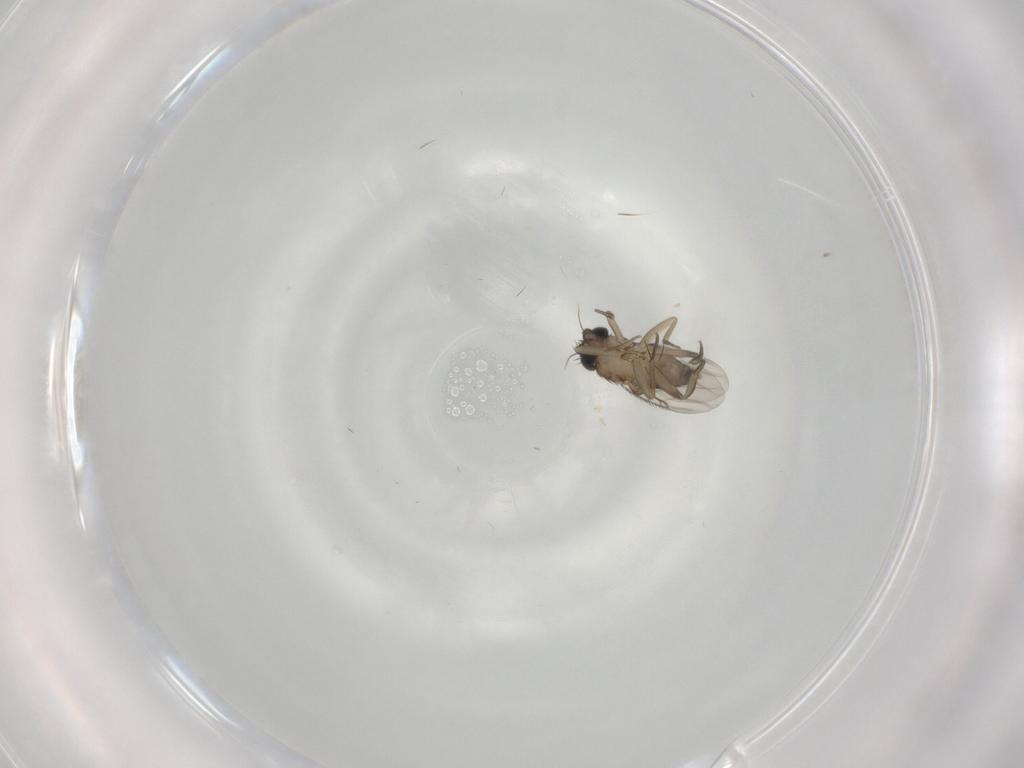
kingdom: Animalia
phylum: Arthropoda
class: Insecta
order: Diptera
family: Phoridae
